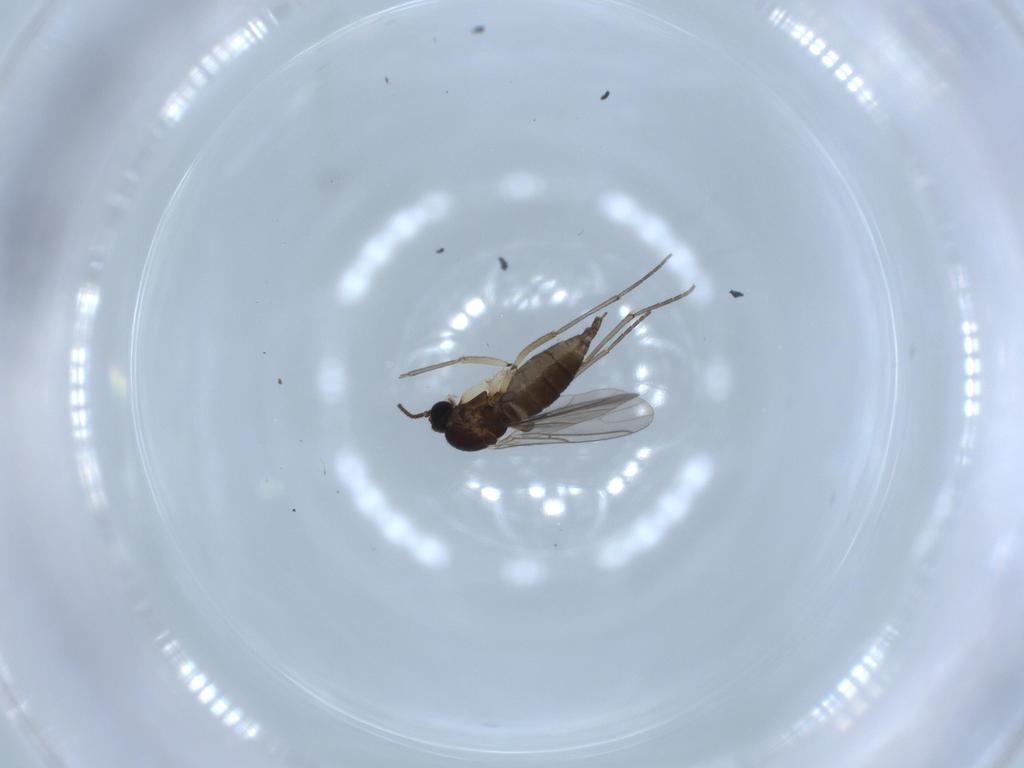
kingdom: Animalia
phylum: Arthropoda
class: Insecta
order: Diptera
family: Sciaridae
